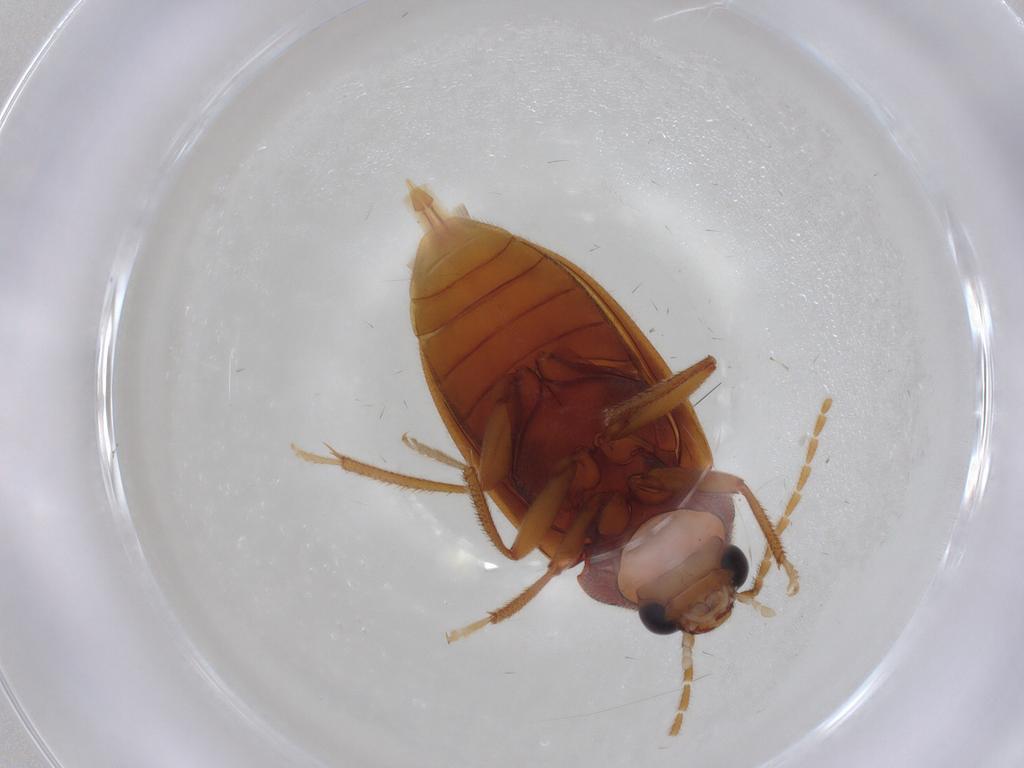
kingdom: Animalia
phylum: Arthropoda
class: Insecta
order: Coleoptera
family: Ptilodactylidae
